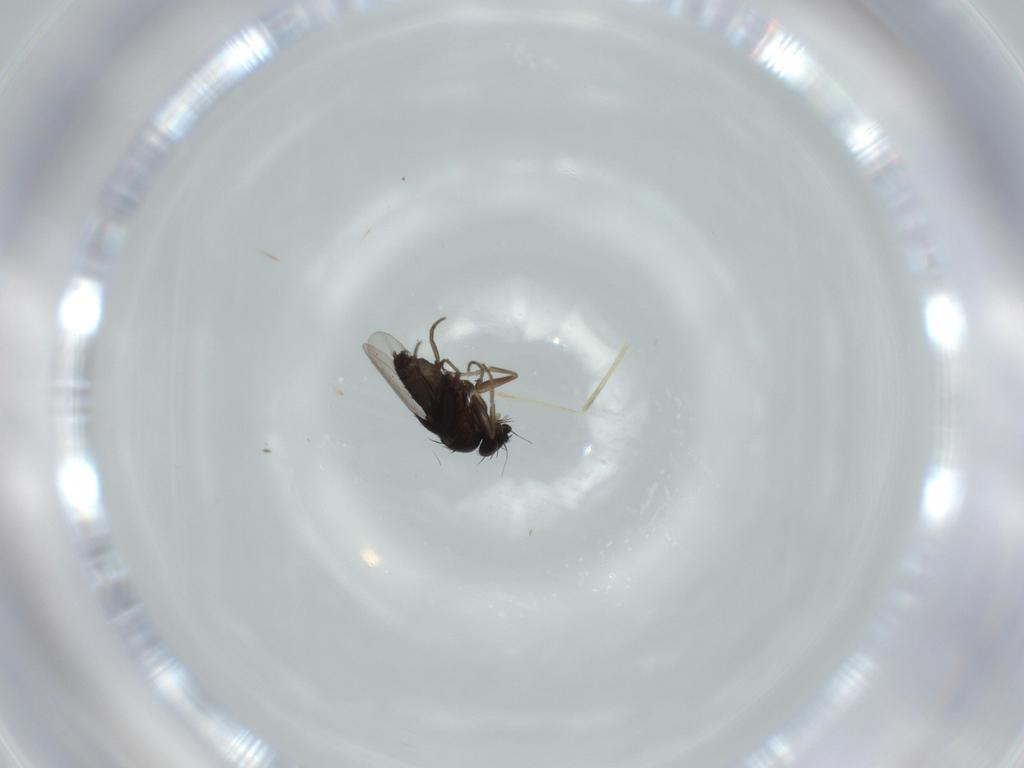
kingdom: Animalia
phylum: Arthropoda
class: Insecta
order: Diptera
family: Phoridae
